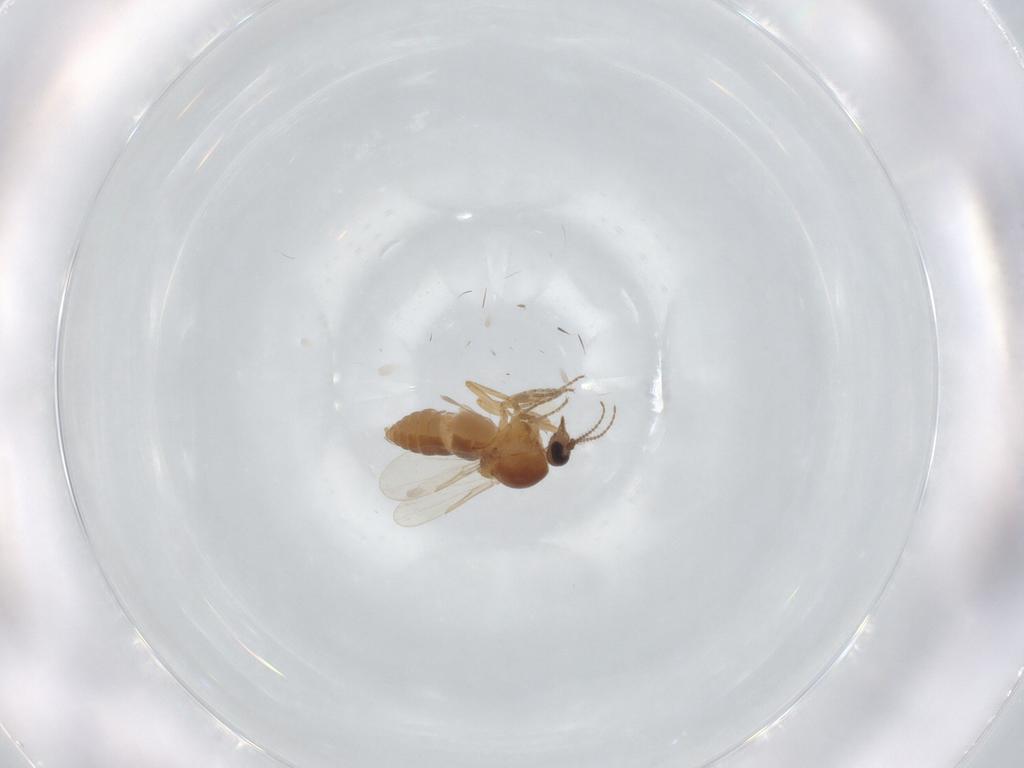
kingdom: Animalia
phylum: Arthropoda
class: Insecta
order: Diptera
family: Ceratopogonidae
